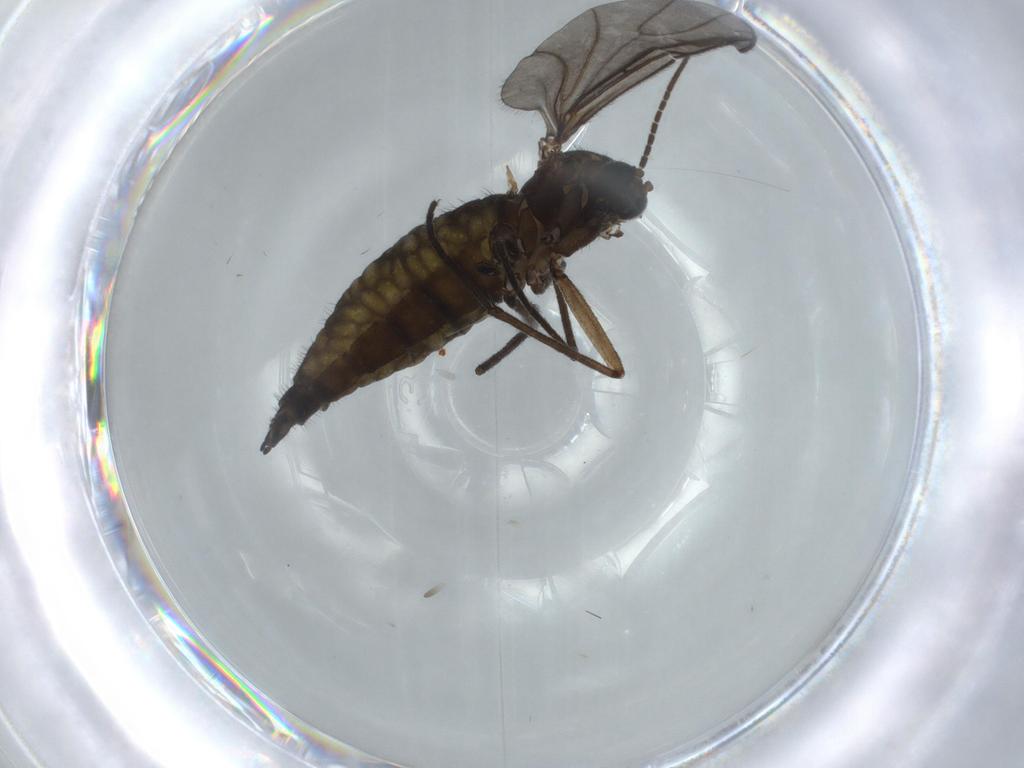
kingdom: Animalia
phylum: Arthropoda
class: Insecta
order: Diptera
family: Sciaridae
